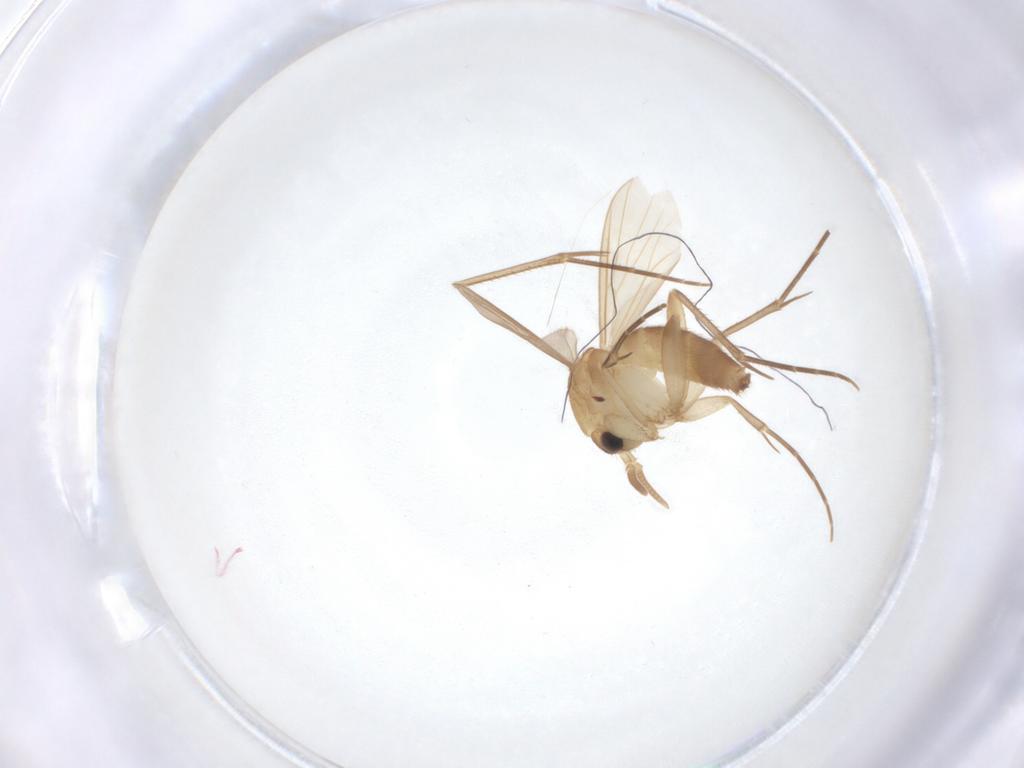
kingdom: Animalia
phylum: Arthropoda
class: Insecta
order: Diptera
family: Mycetophilidae
